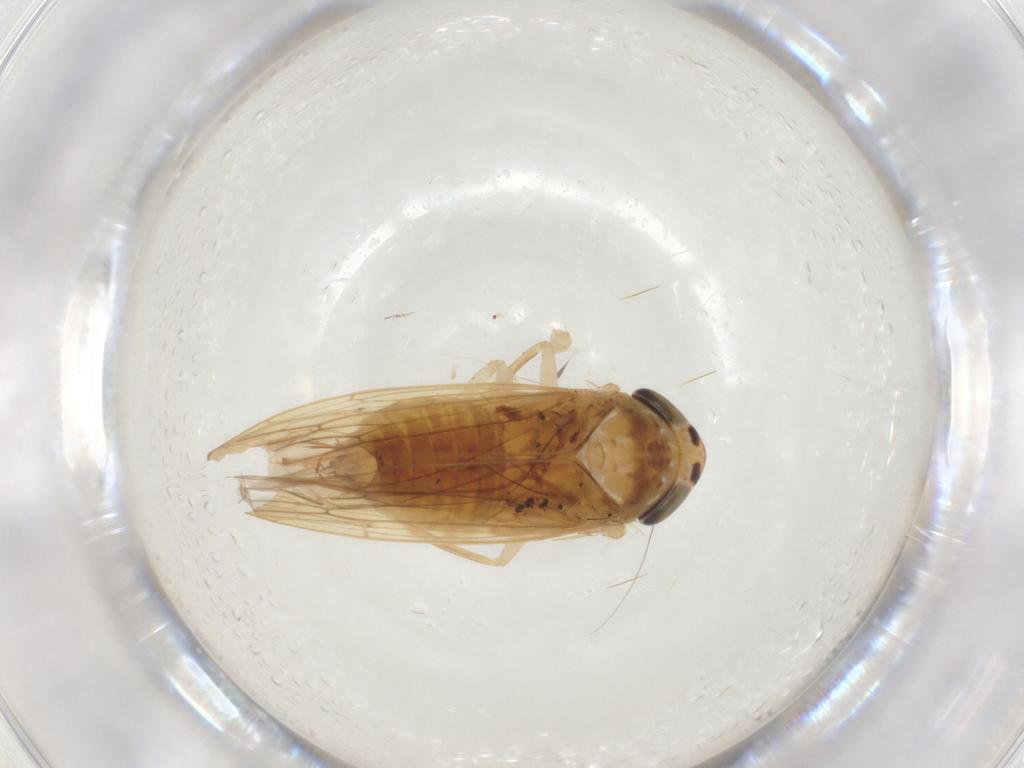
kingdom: Animalia
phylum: Arthropoda
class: Insecta
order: Hemiptera
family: Cicadellidae
